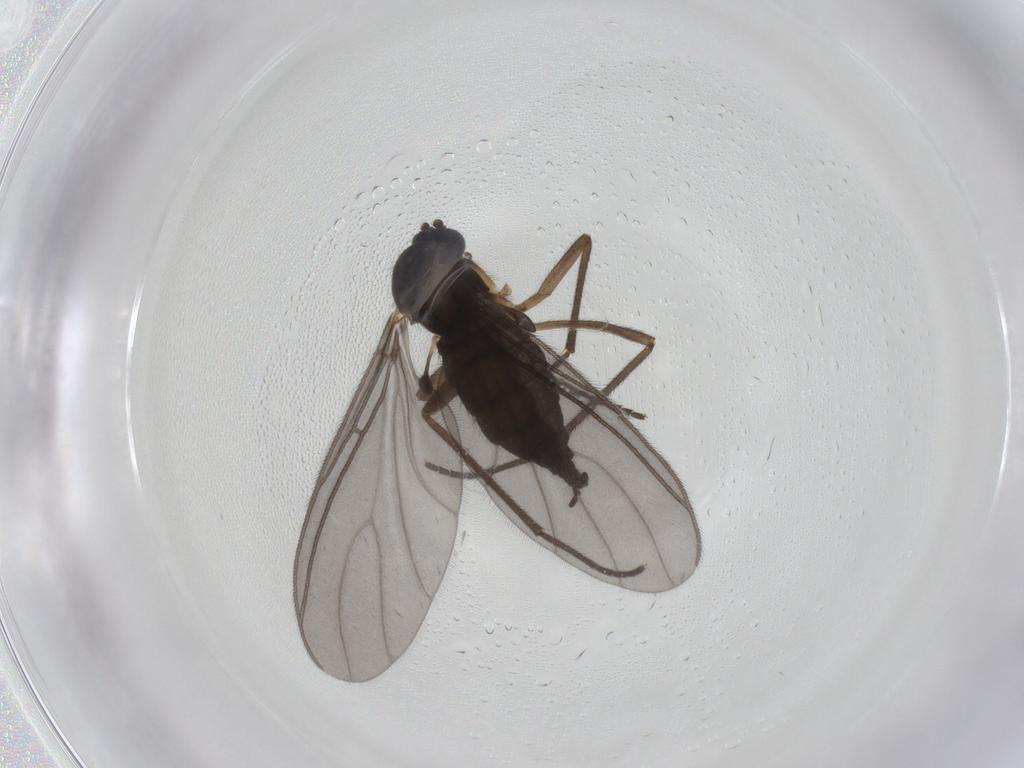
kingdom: Animalia
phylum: Arthropoda
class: Insecta
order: Diptera
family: Sciaridae
